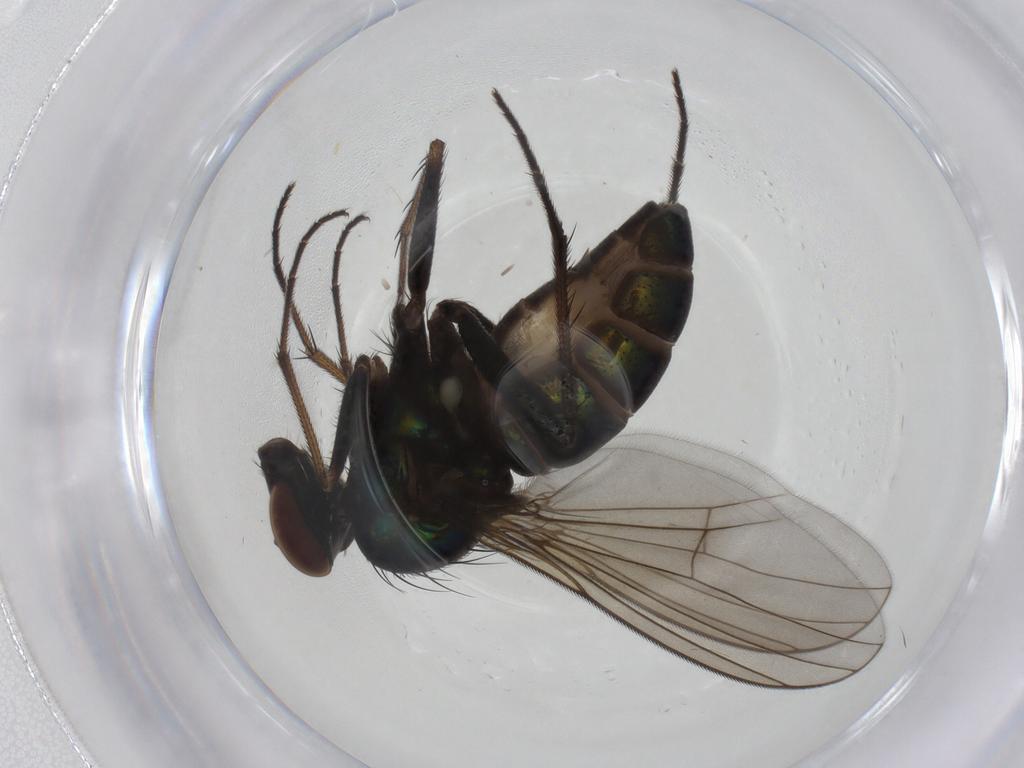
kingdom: Animalia
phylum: Arthropoda
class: Insecta
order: Diptera
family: Dolichopodidae
